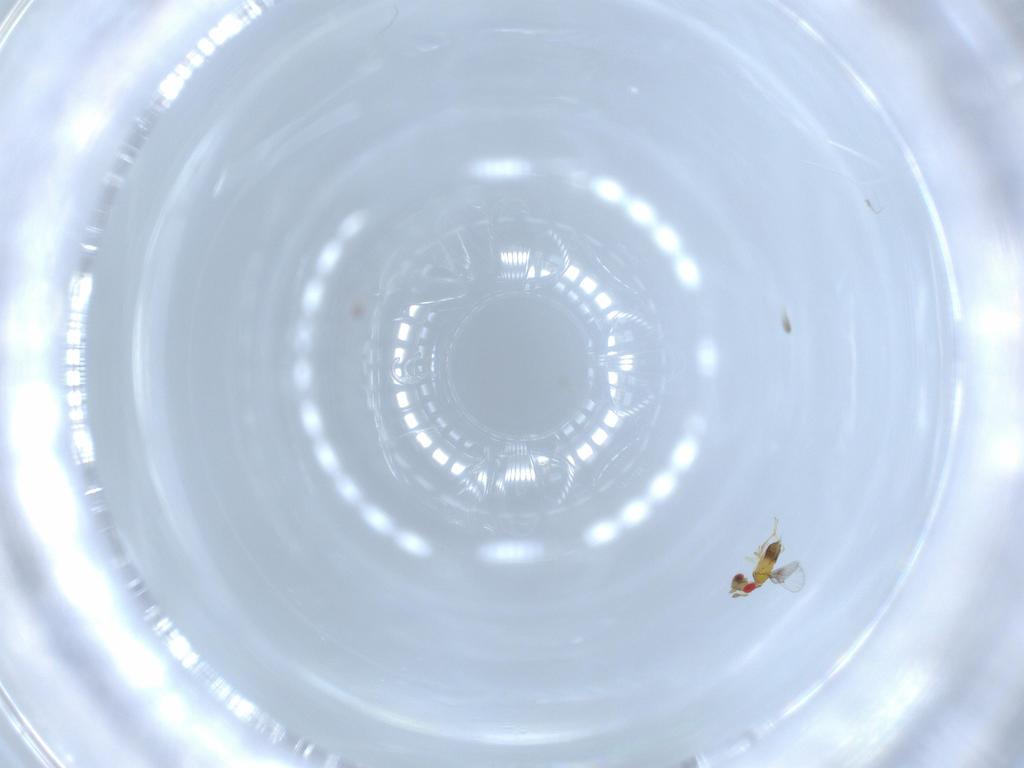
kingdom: Animalia
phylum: Arthropoda
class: Insecta
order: Hymenoptera
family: Trichogrammatidae
